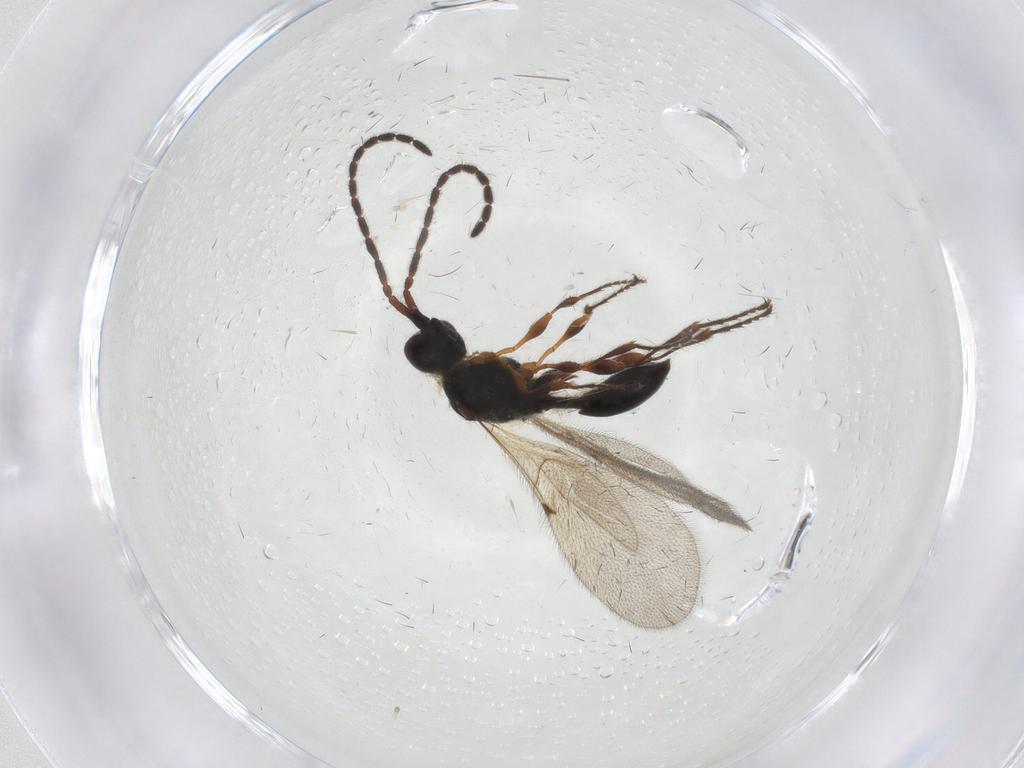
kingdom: Animalia
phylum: Arthropoda
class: Insecta
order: Hymenoptera
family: Diapriidae
